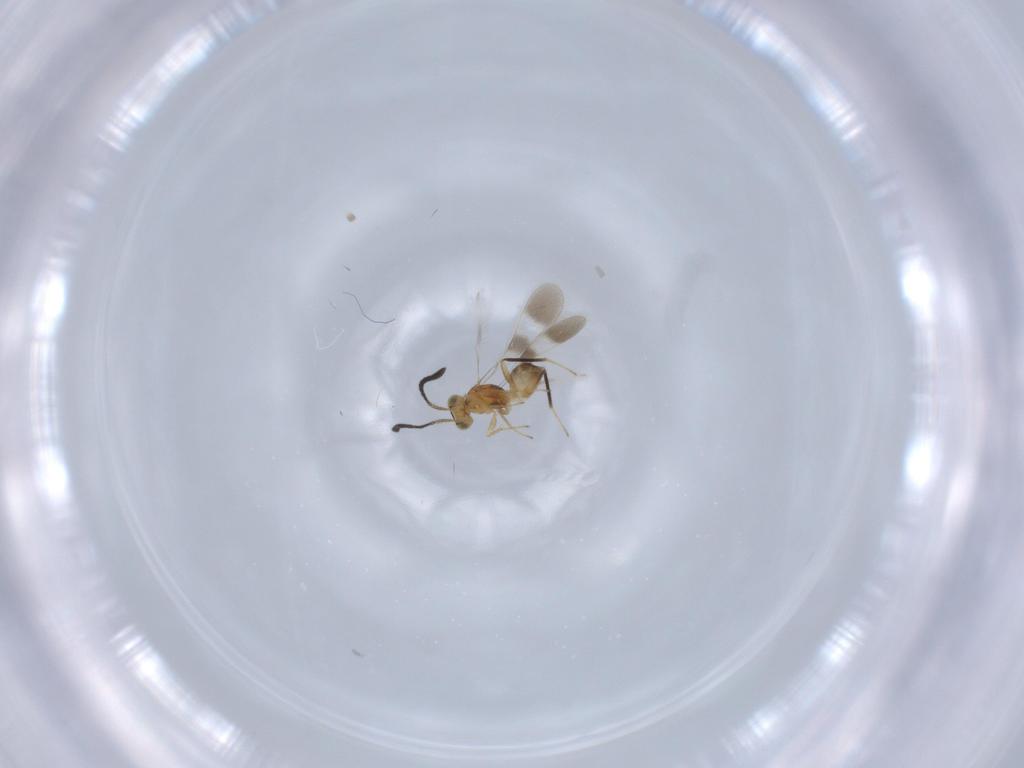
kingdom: Animalia
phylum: Arthropoda
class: Insecta
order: Hymenoptera
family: Mymaridae
